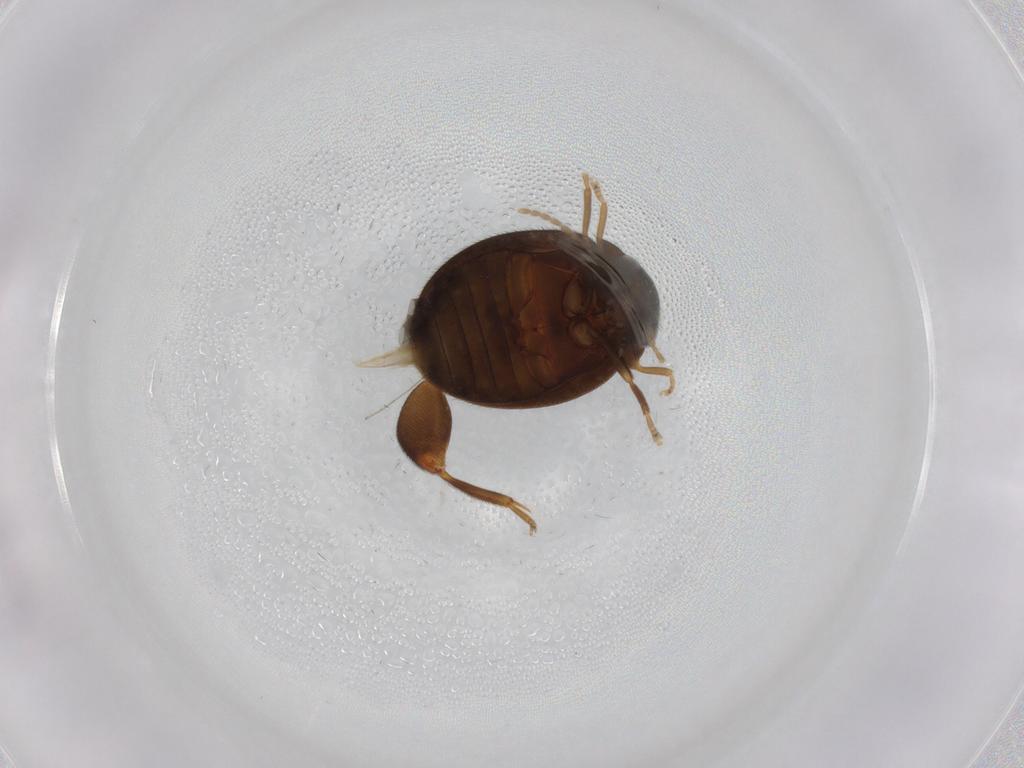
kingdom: Animalia
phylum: Arthropoda
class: Insecta
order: Coleoptera
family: Scirtidae
